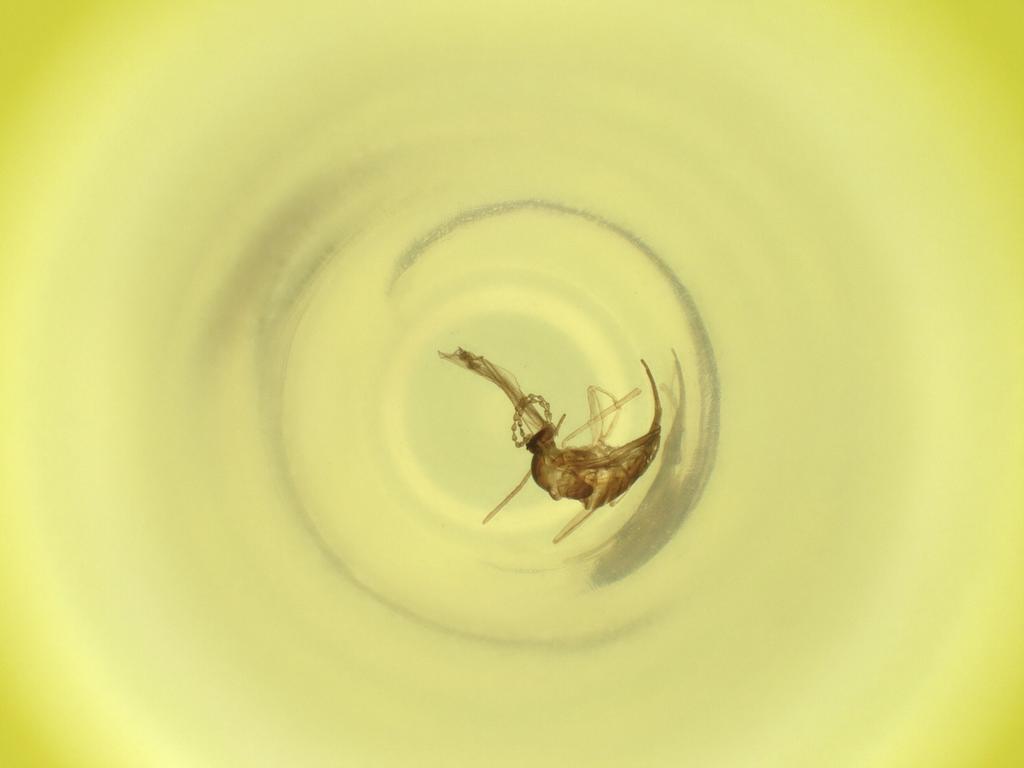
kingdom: Animalia
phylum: Arthropoda
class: Insecta
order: Diptera
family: Cecidomyiidae
